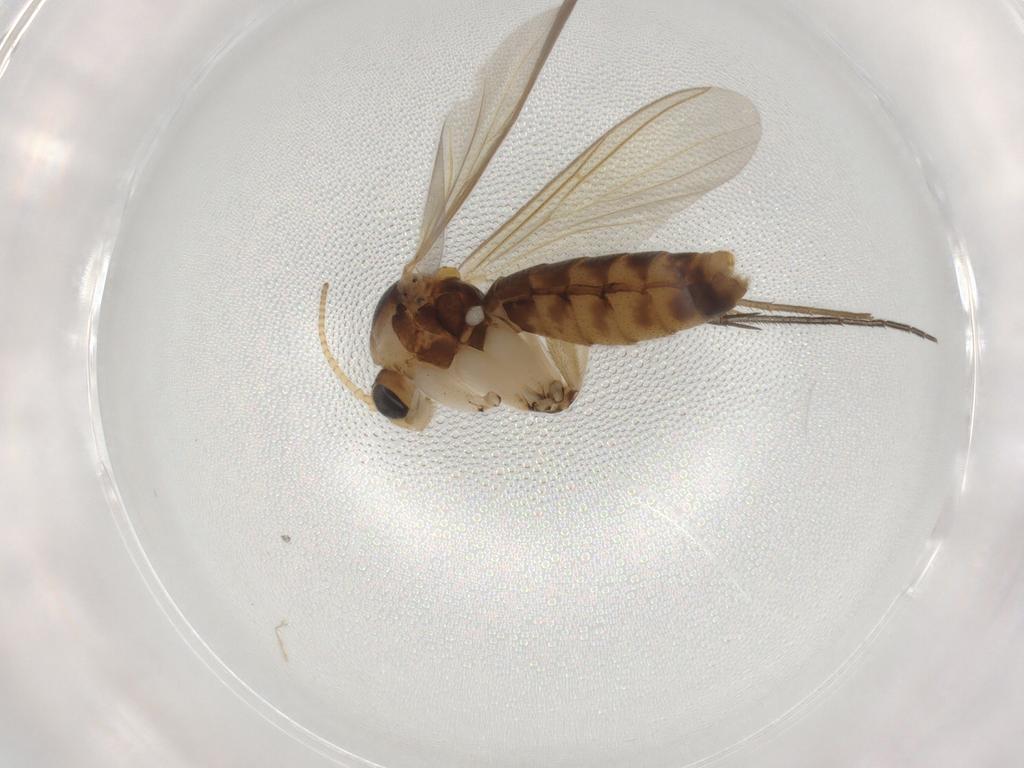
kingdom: Animalia
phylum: Arthropoda
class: Insecta
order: Diptera
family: Mycetophilidae
